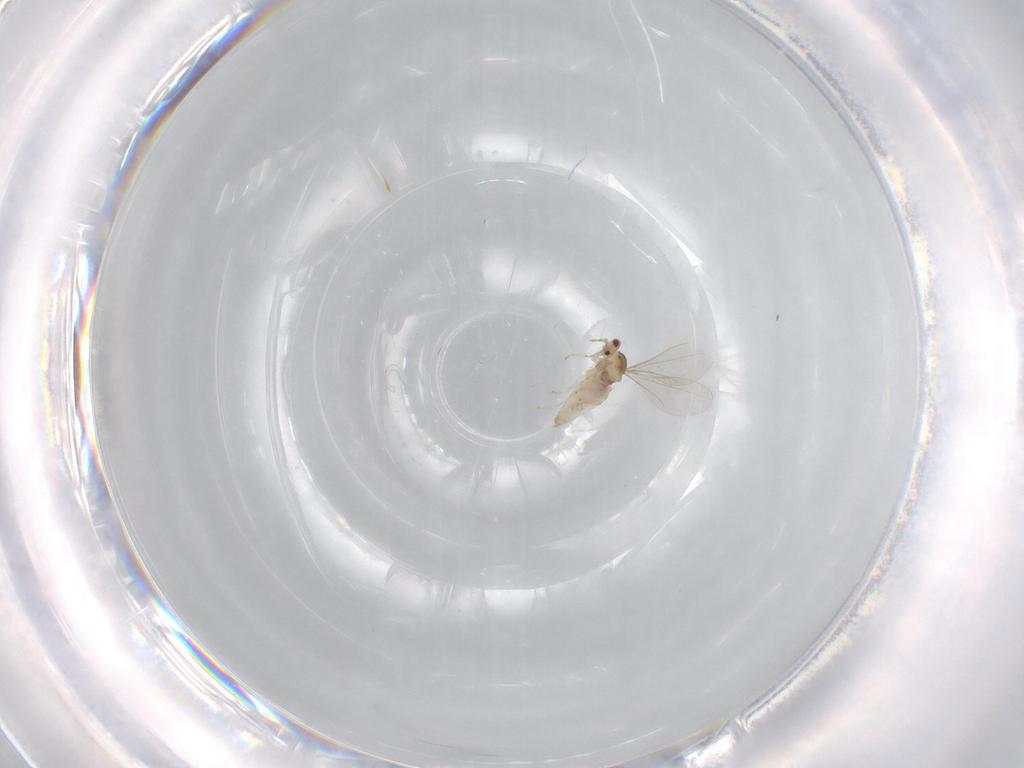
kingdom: Animalia
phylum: Arthropoda
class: Insecta
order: Diptera
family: Cecidomyiidae
